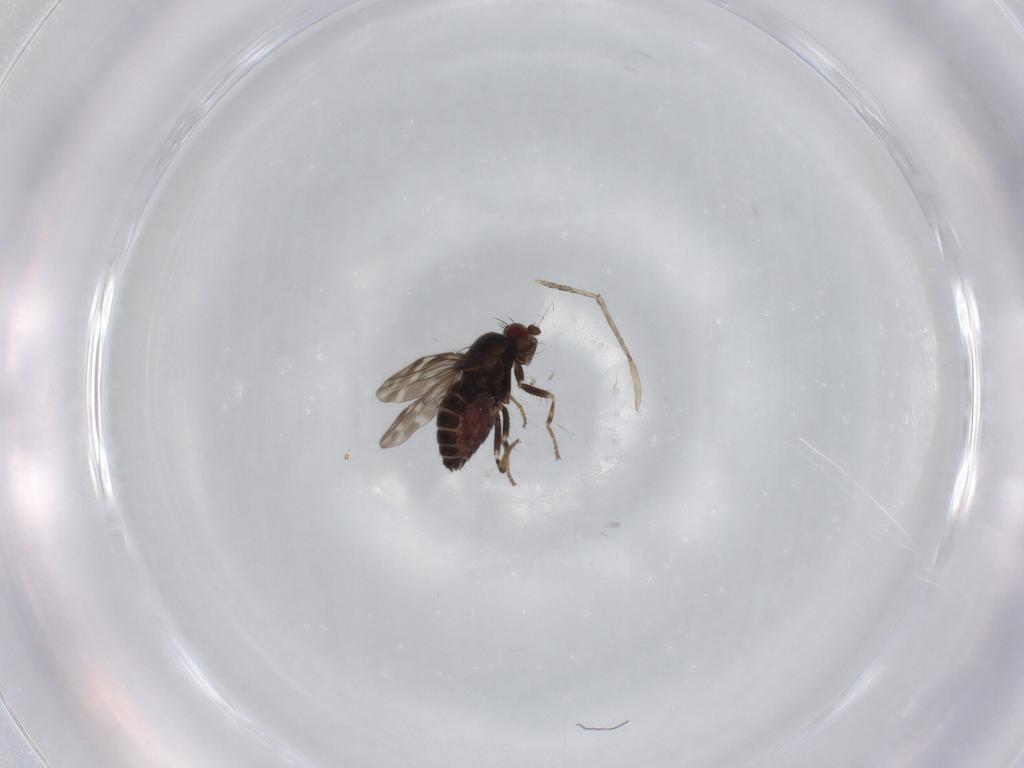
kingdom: Animalia
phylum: Arthropoda
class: Insecta
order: Diptera
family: Sphaeroceridae
